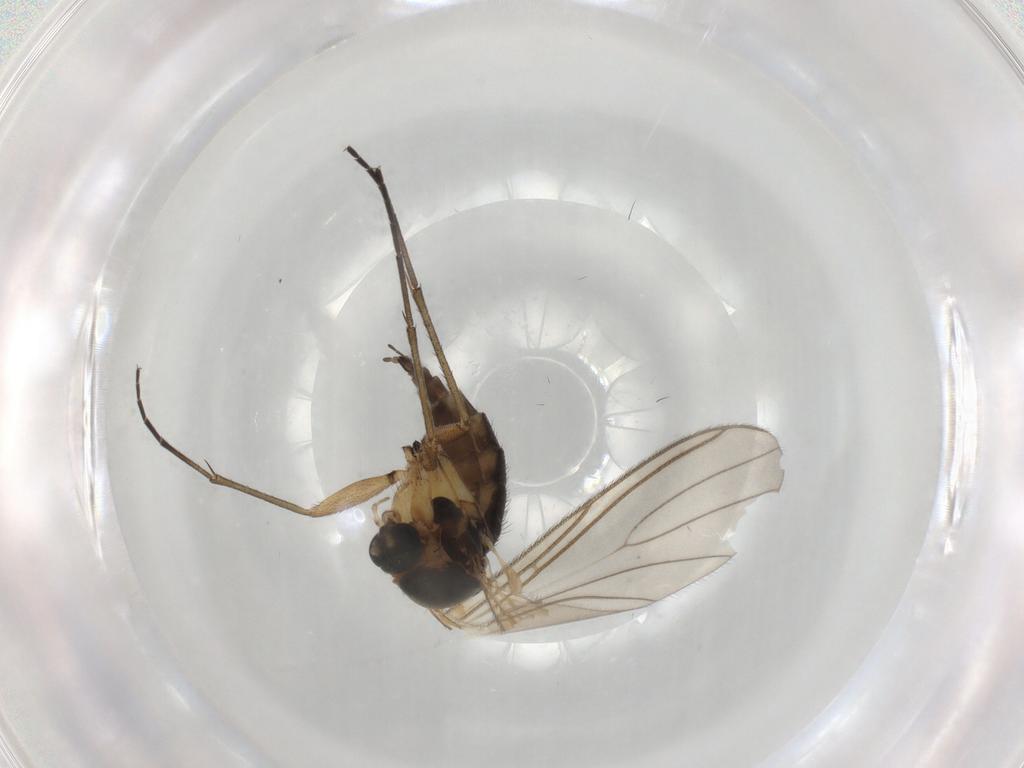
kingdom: Animalia
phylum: Arthropoda
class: Insecta
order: Diptera
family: Sciaridae
